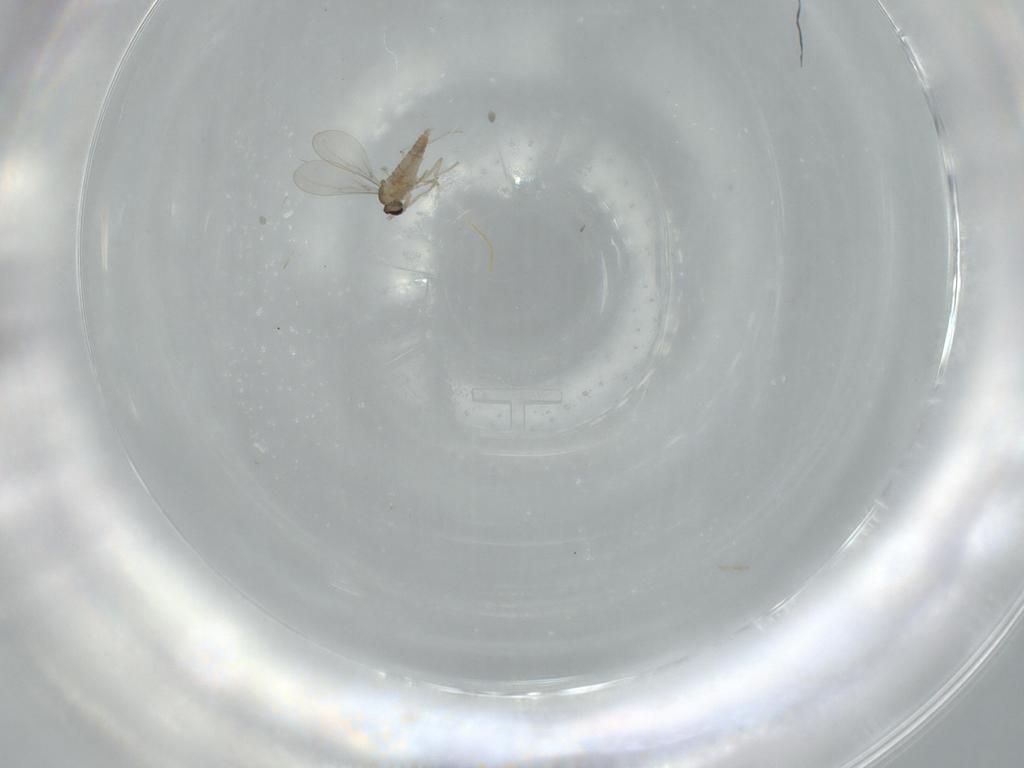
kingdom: Animalia
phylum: Arthropoda
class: Insecta
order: Diptera
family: Cecidomyiidae
